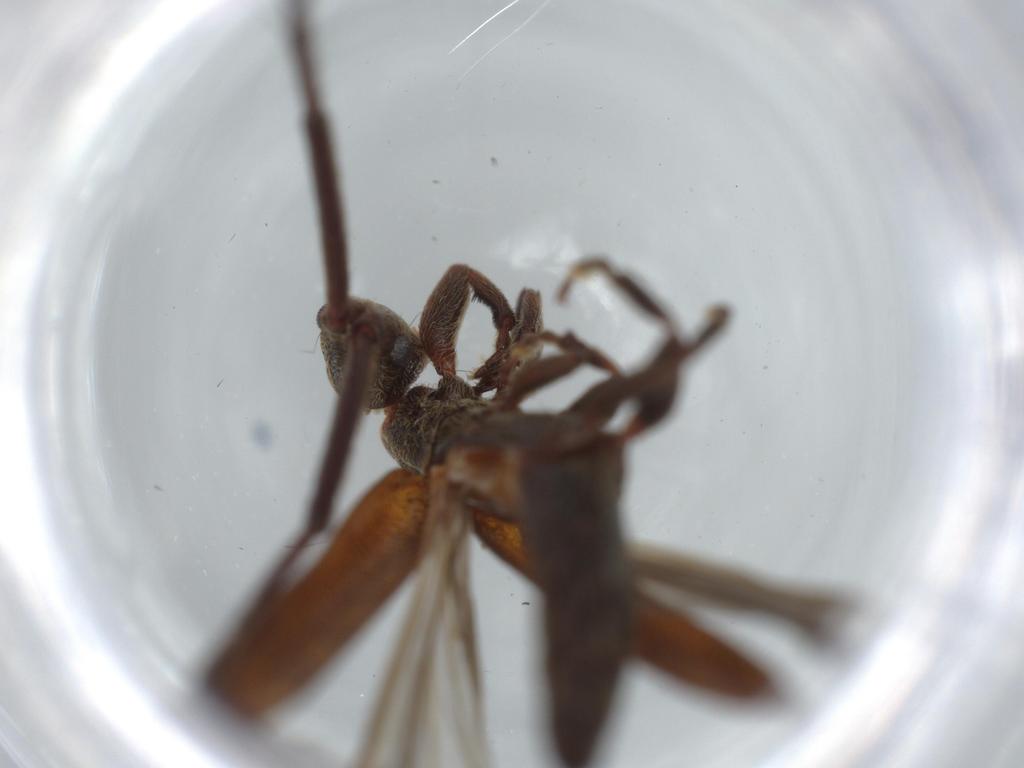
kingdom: Animalia
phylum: Arthropoda
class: Insecta
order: Coleoptera
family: Cerambycidae
